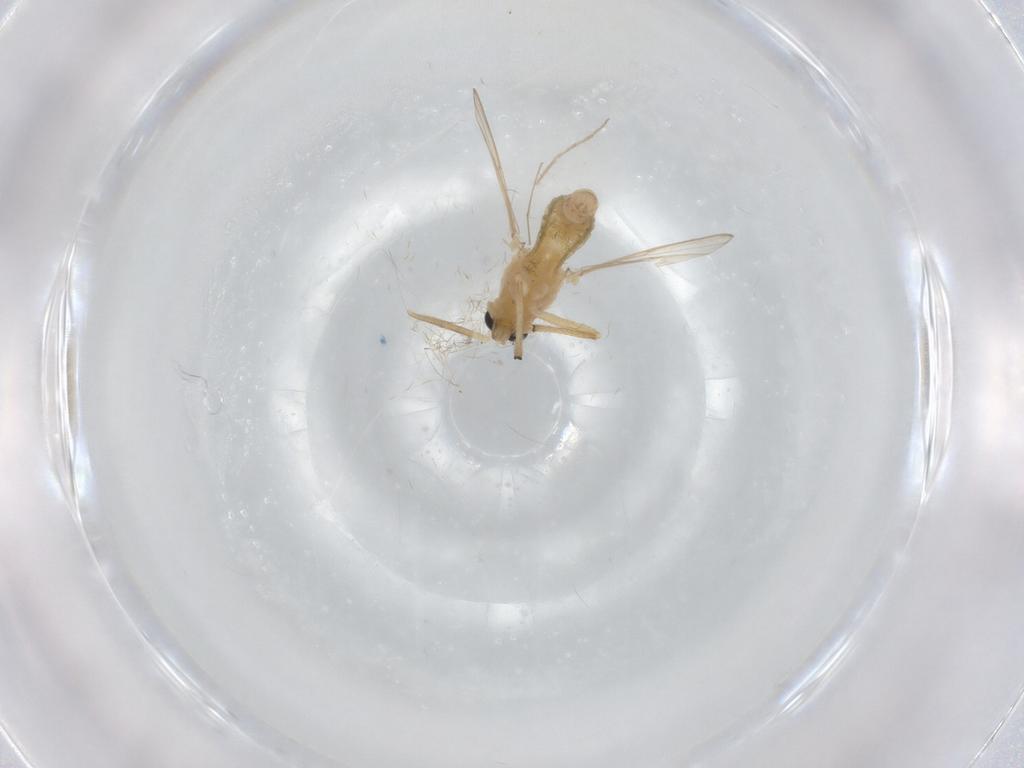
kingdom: Animalia
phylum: Arthropoda
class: Insecta
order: Diptera
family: Chironomidae
